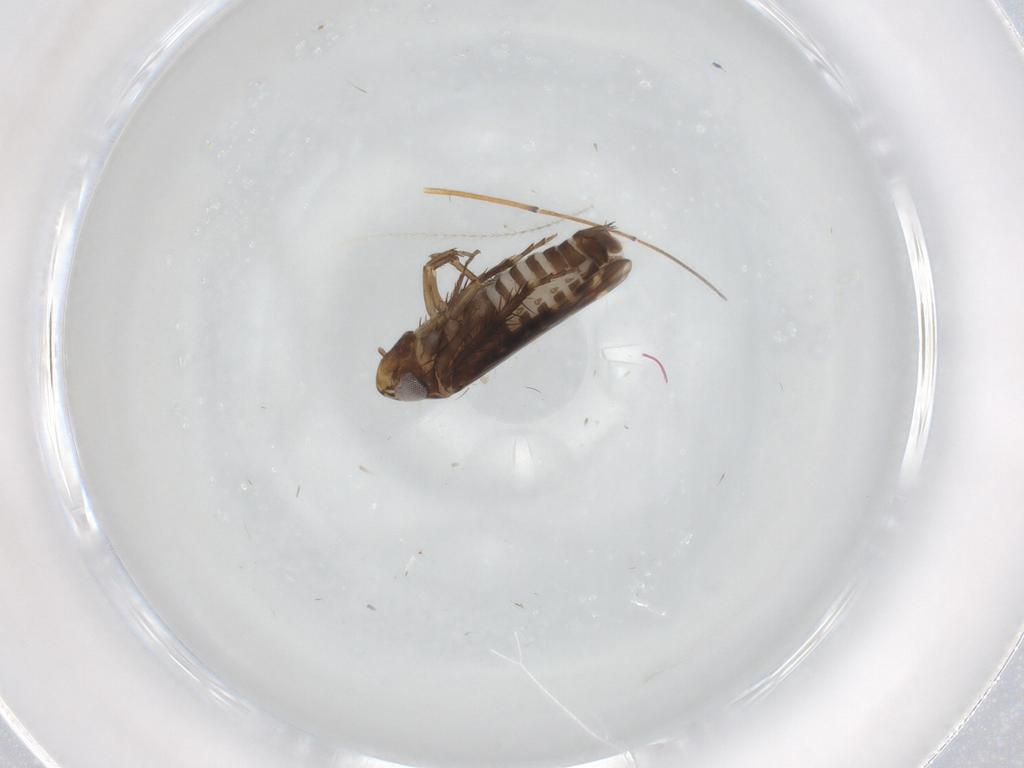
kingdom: Animalia
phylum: Arthropoda
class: Insecta
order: Hemiptera
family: Cicadellidae
